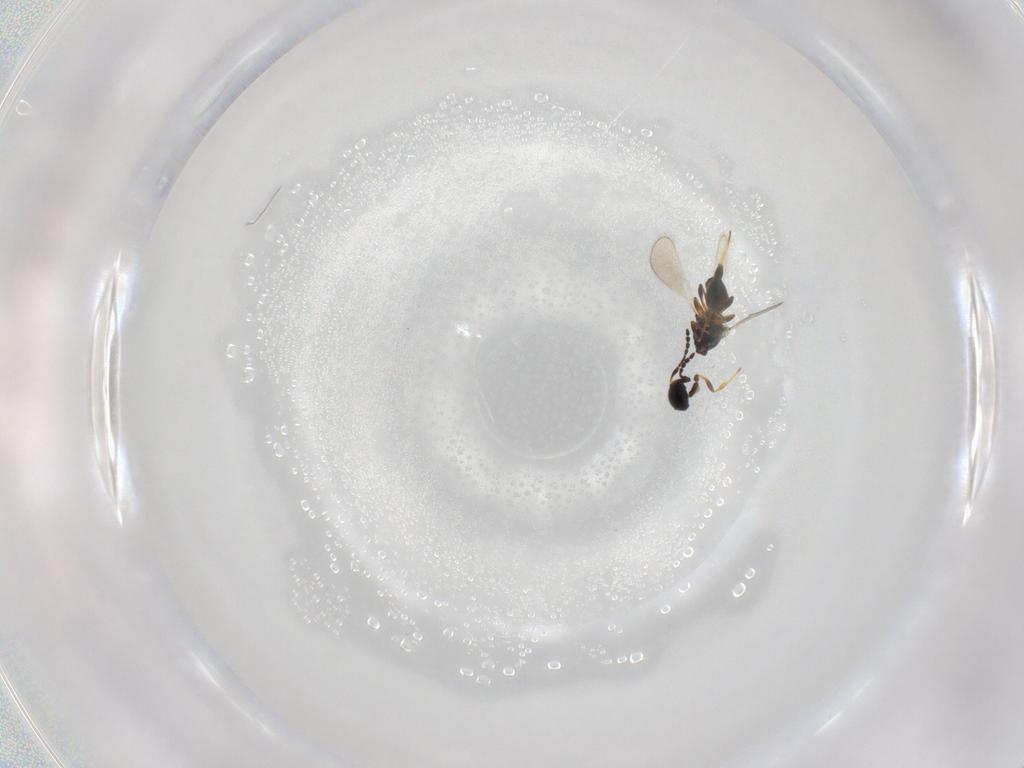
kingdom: Animalia
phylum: Arthropoda
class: Insecta
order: Hymenoptera
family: Platygastridae
